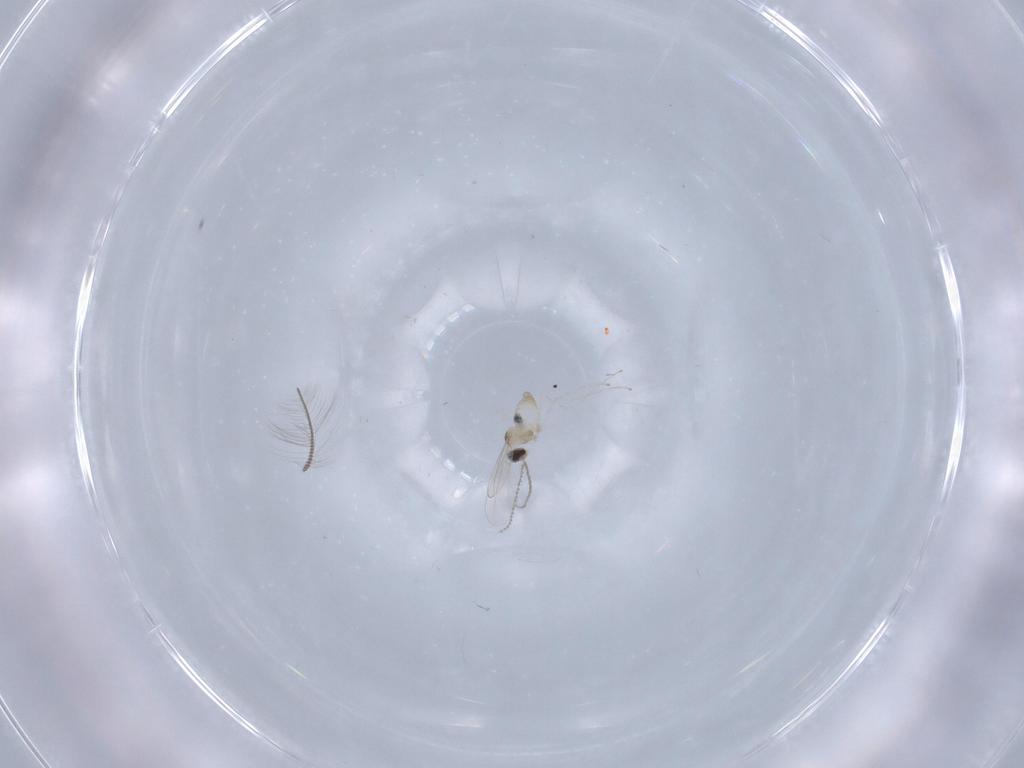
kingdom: Animalia
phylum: Arthropoda
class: Insecta
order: Diptera
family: Cecidomyiidae
